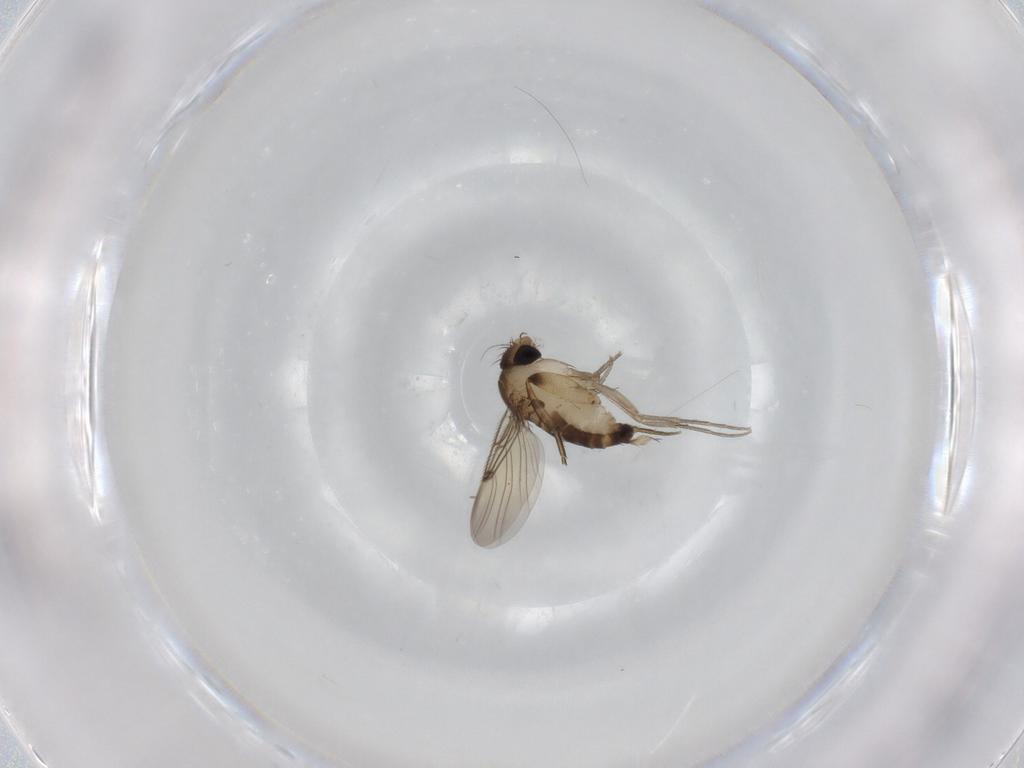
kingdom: Animalia
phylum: Arthropoda
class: Insecta
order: Diptera
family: Phoridae
